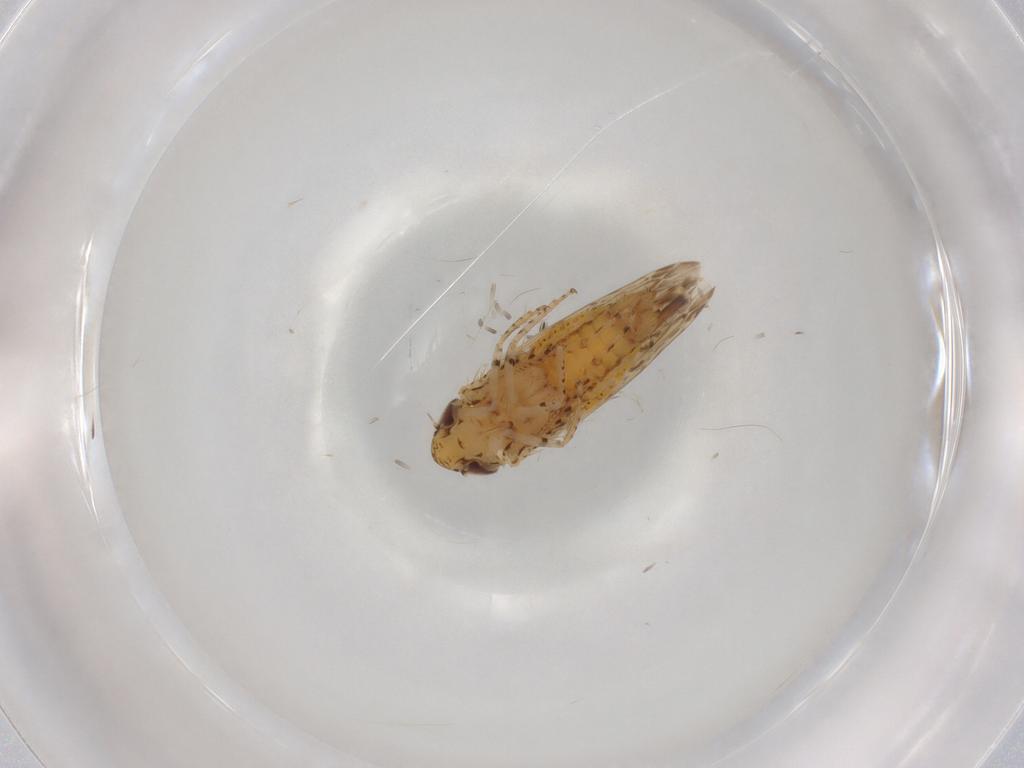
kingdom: Animalia
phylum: Arthropoda
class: Insecta
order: Hemiptera
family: Cicadellidae
